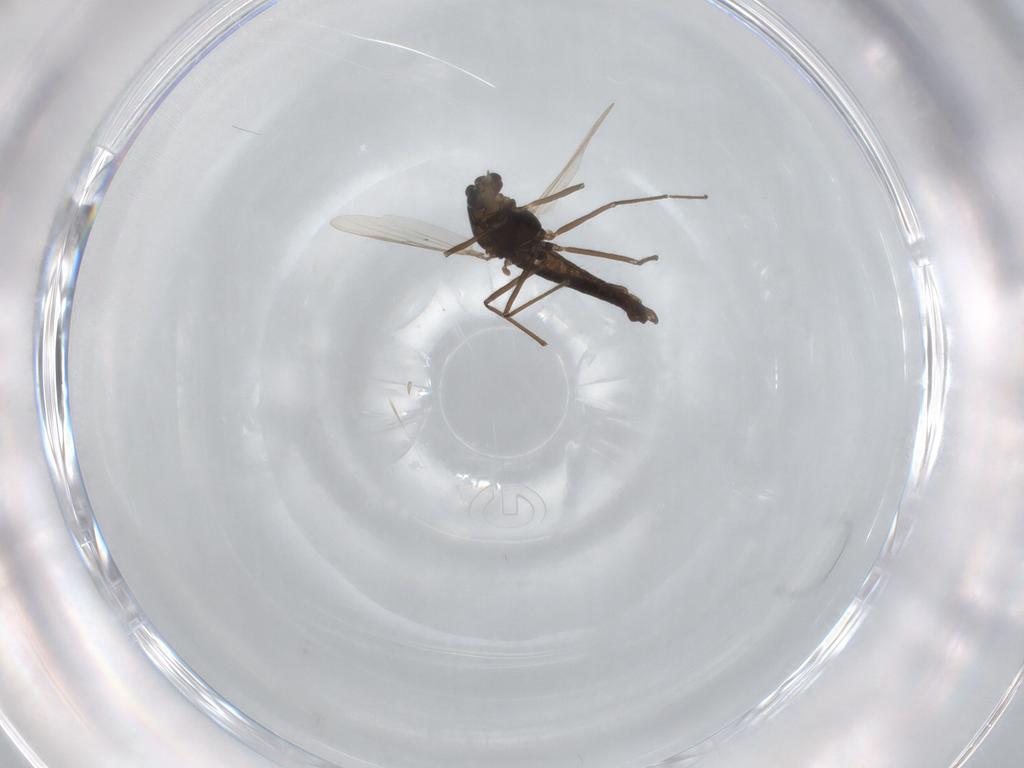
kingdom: Animalia
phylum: Arthropoda
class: Insecta
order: Diptera
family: Chironomidae
